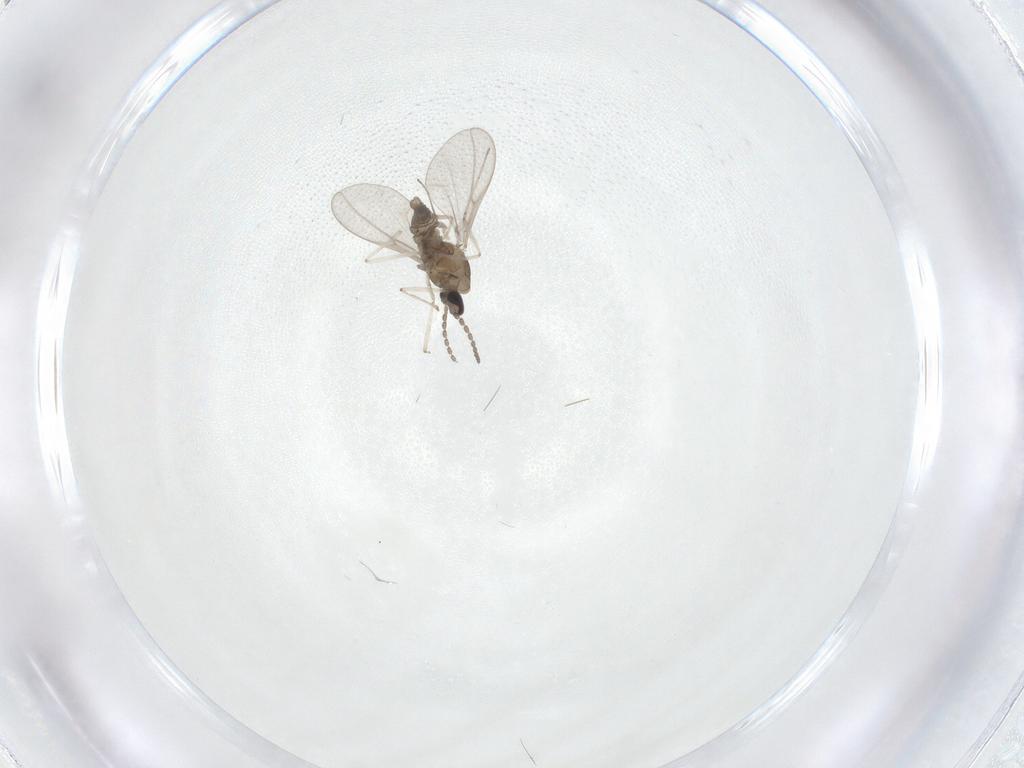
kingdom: Animalia
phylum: Arthropoda
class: Insecta
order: Diptera
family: Cecidomyiidae
